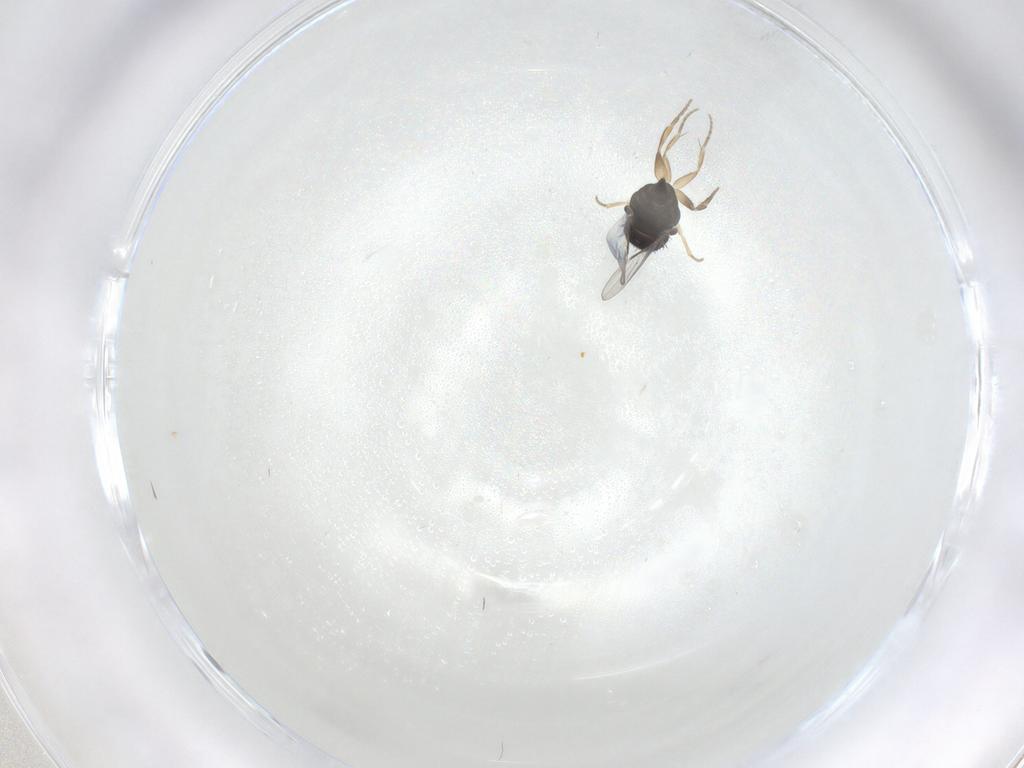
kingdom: Animalia
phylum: Arthropoda
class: Insecta
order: Diptera
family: Phoridae
